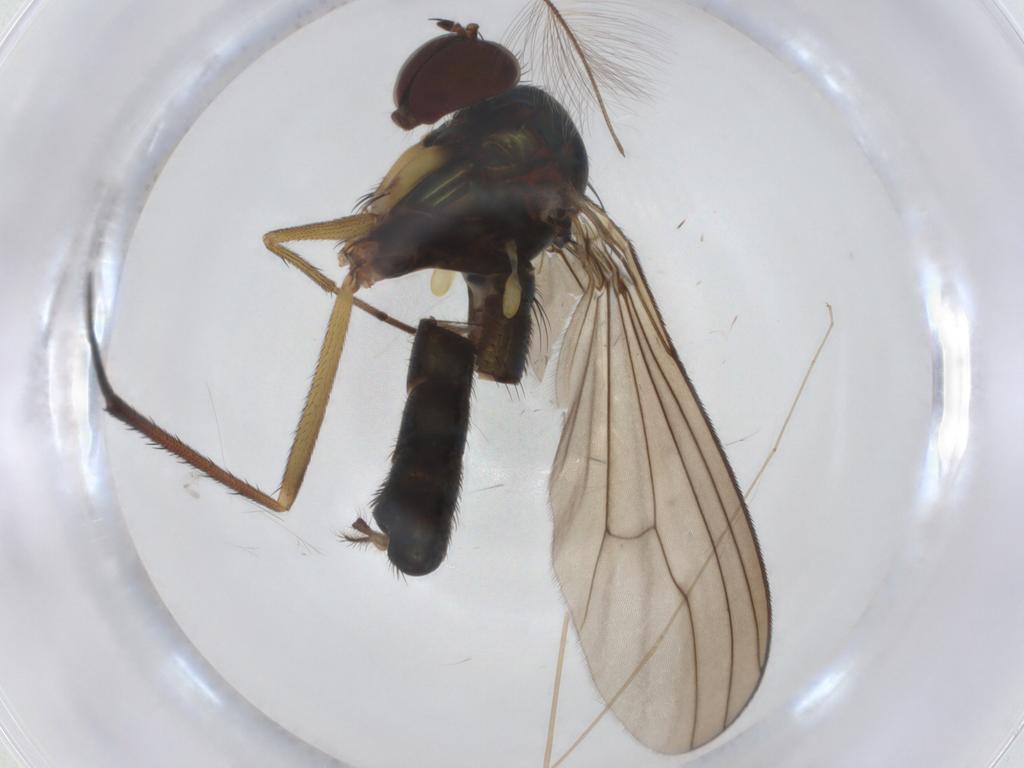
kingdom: Animalia
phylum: Arthropoda
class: Insecta
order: Diptera
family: Dolichopodidae
